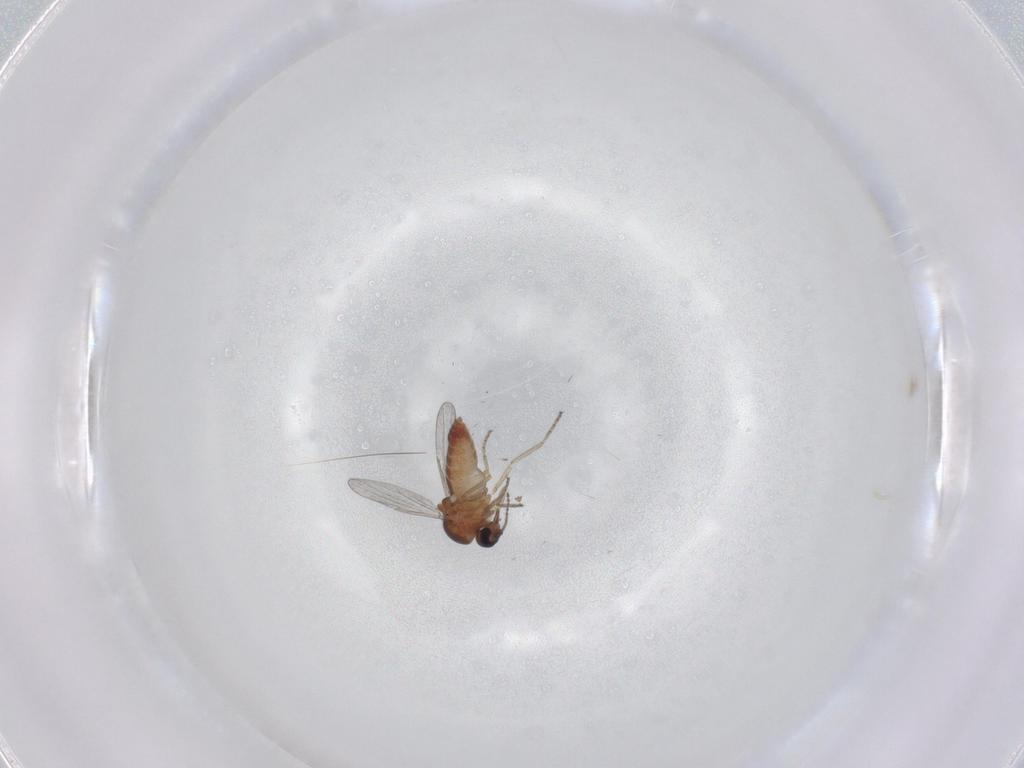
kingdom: Animalia
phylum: Arthropoda
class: Insecta
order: Diptera
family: Ceratopogonidae
